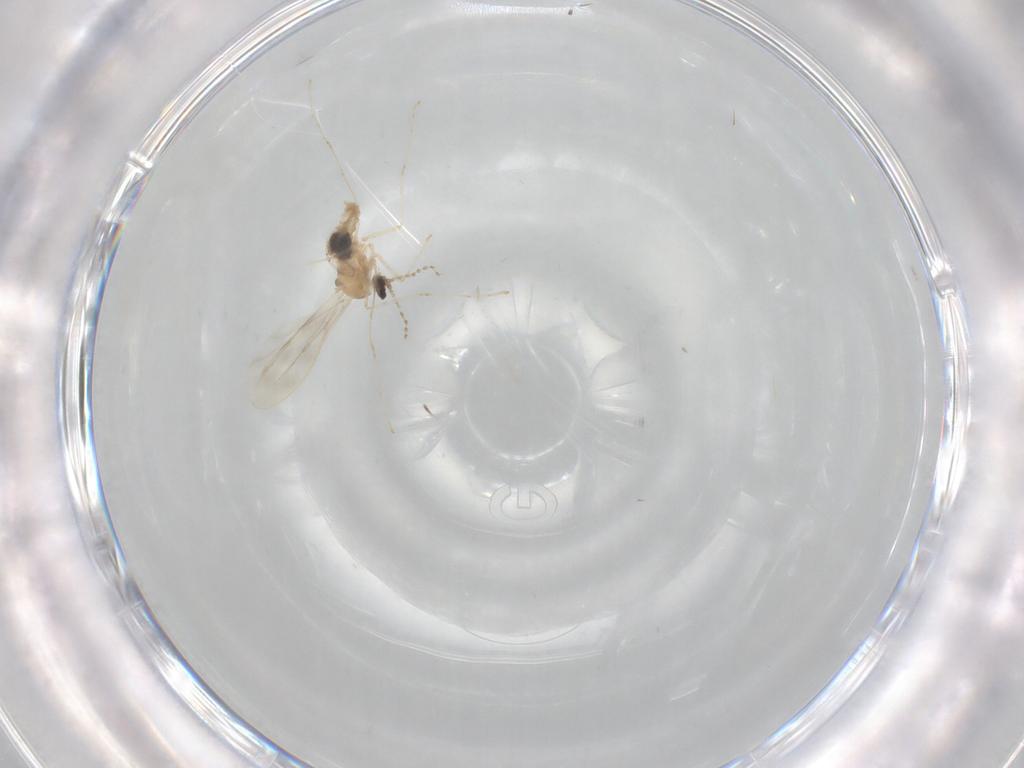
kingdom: Animalia
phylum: Arthropoda
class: Insecta
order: Diptera
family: Cecidomyiidae
